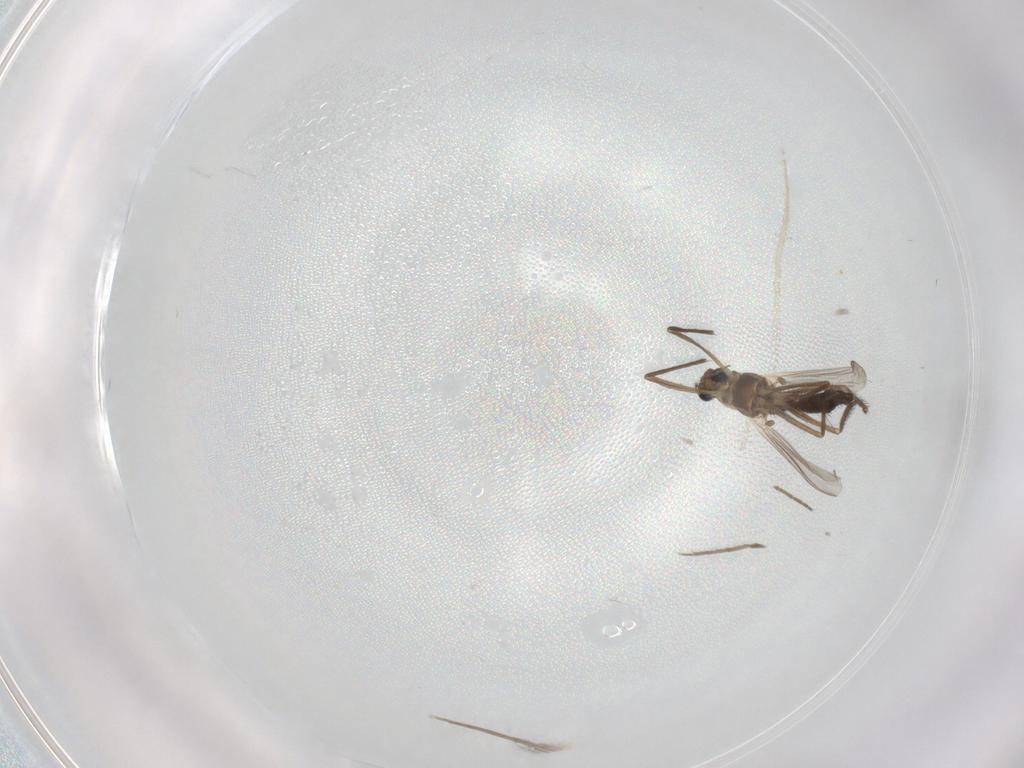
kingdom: Animalia
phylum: Arthropoda
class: Insecta
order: Diptera
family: Chironomidae
